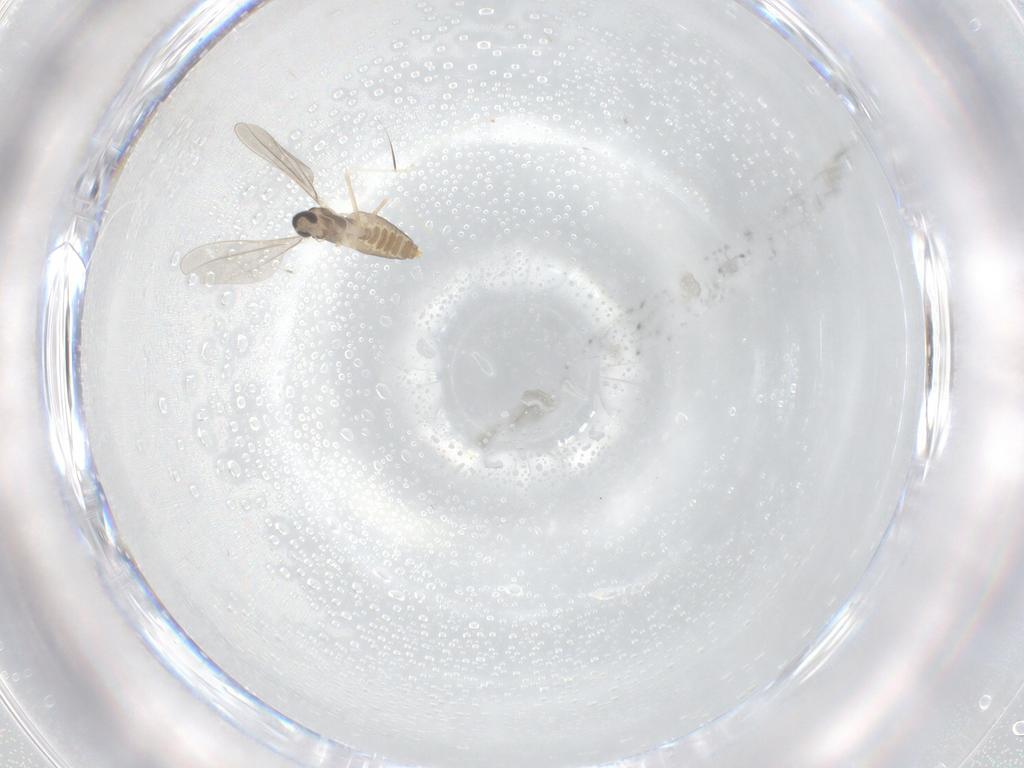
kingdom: Animalia
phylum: Arthropoda
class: Insecta
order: Diptera
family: Cecidomyiidae
